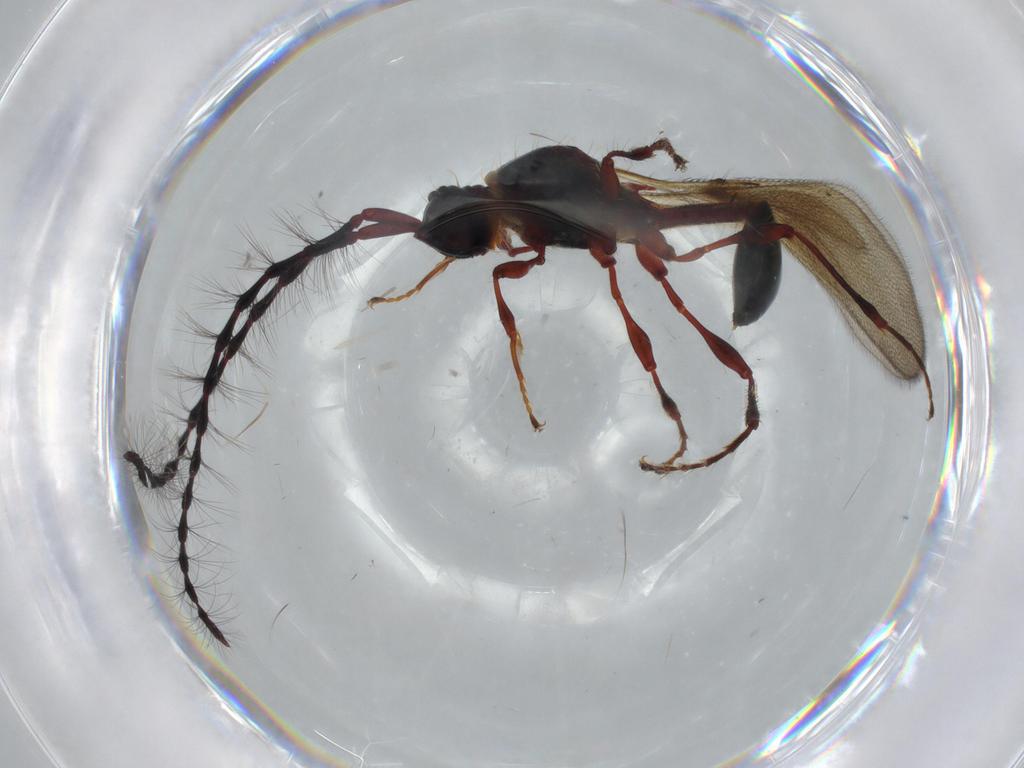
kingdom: Animalia
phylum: Arthropoda
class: Insecta
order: Hymenoptera
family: Diapriidae
